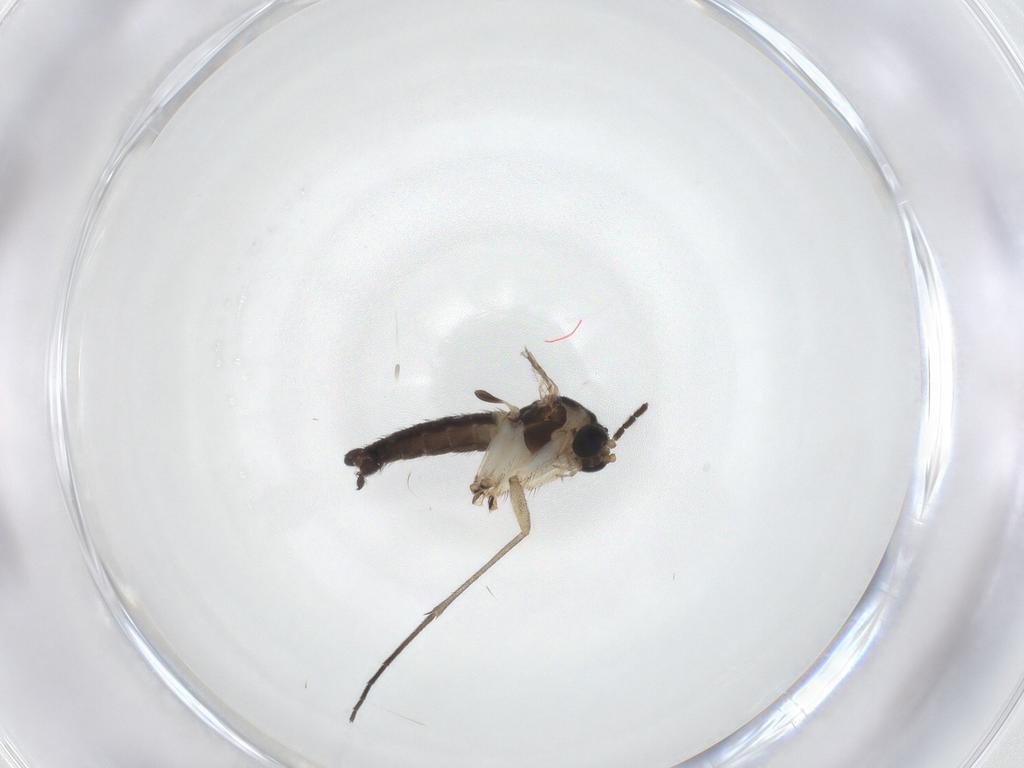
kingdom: Animalia
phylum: Arthropoda
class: Insecta
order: Diptera
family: Sciaridae
